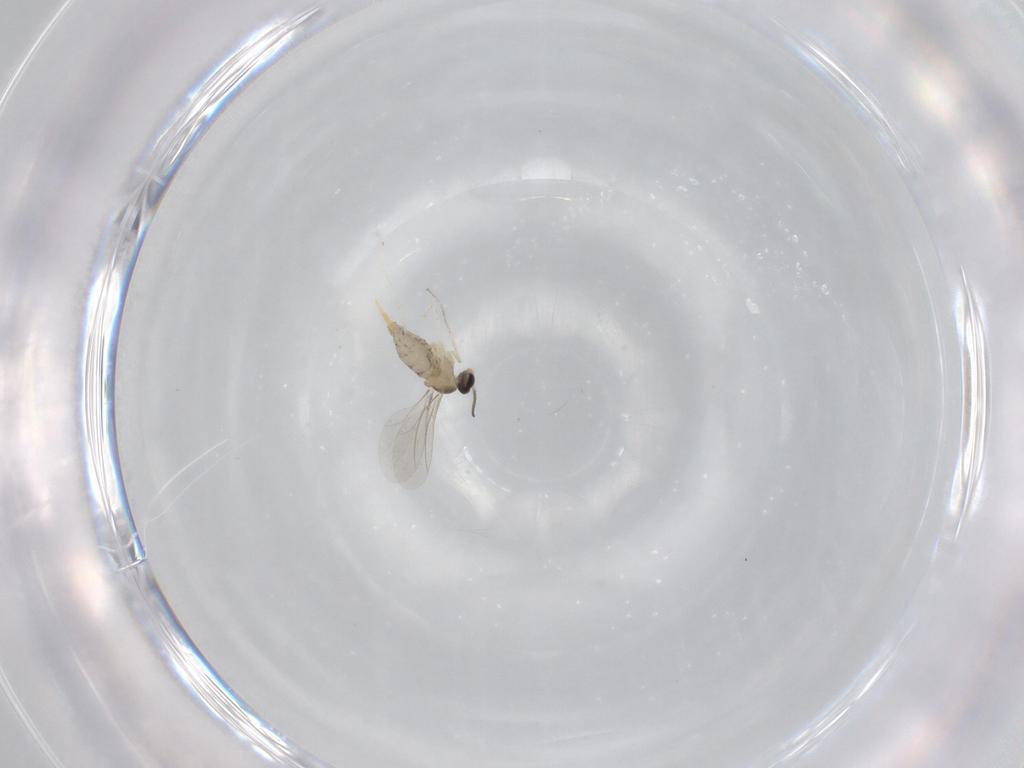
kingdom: Animalia
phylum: Arthropoda
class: Insecta
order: Diptera
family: Cecidomyiidae
